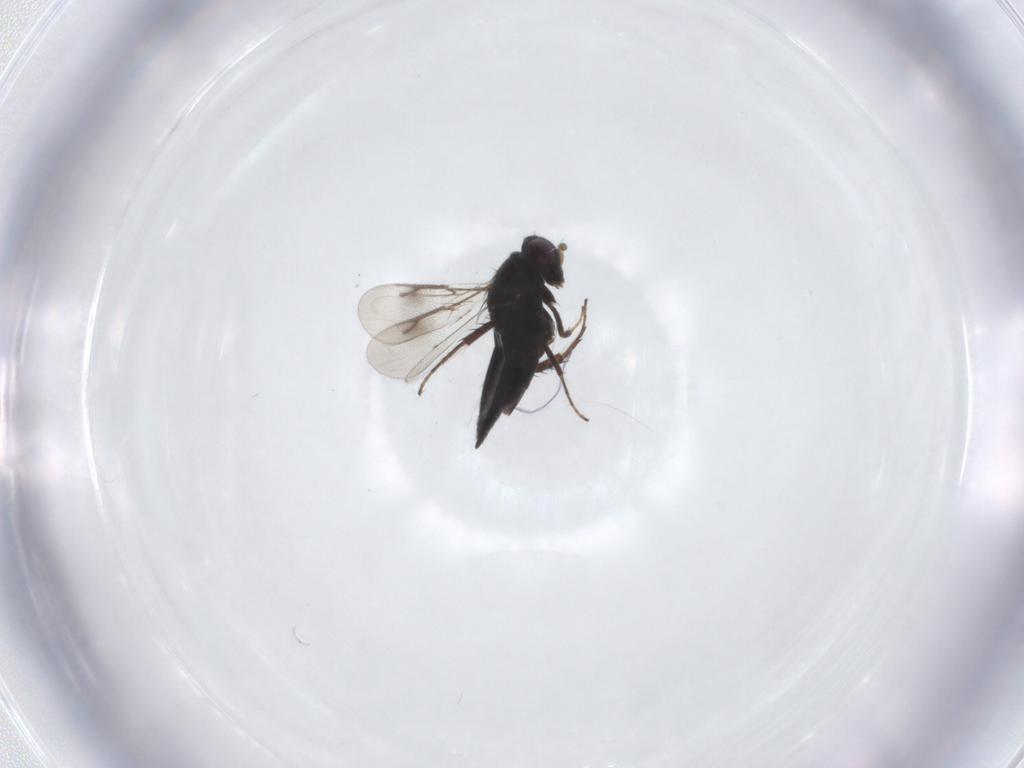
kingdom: Animalia
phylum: Arthropoda
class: Insecta
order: Hymenoptera
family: Pirenidae
